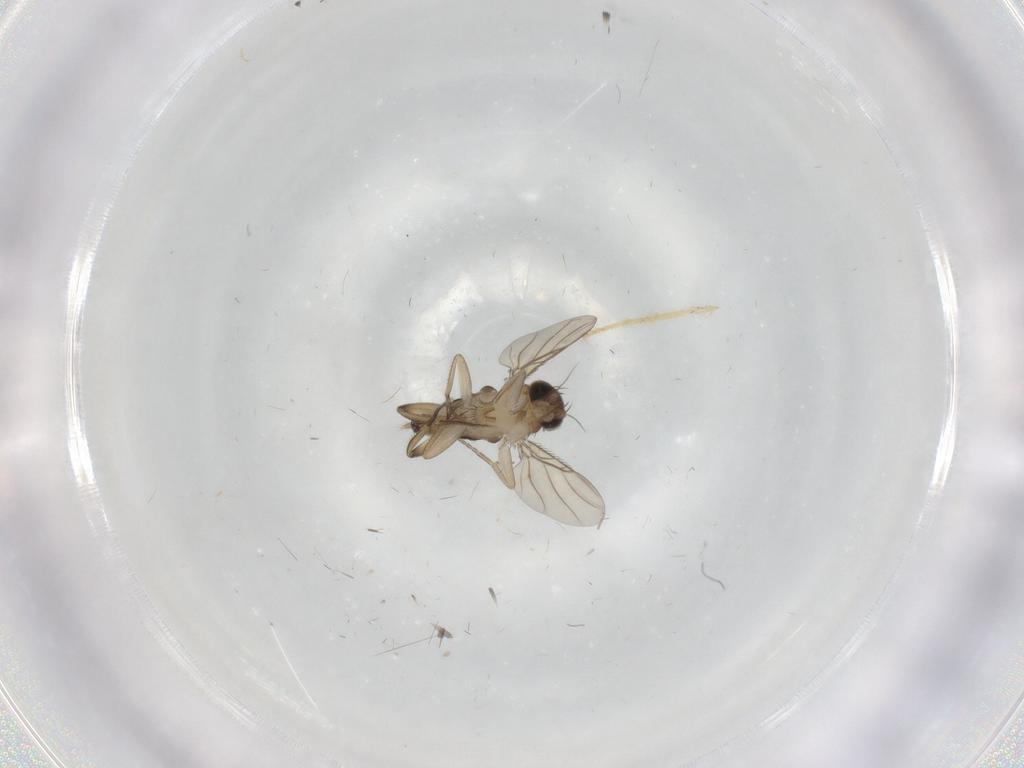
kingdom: Animalia
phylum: Arthropoda
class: Insecta
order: Diptera
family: Chironomidae
